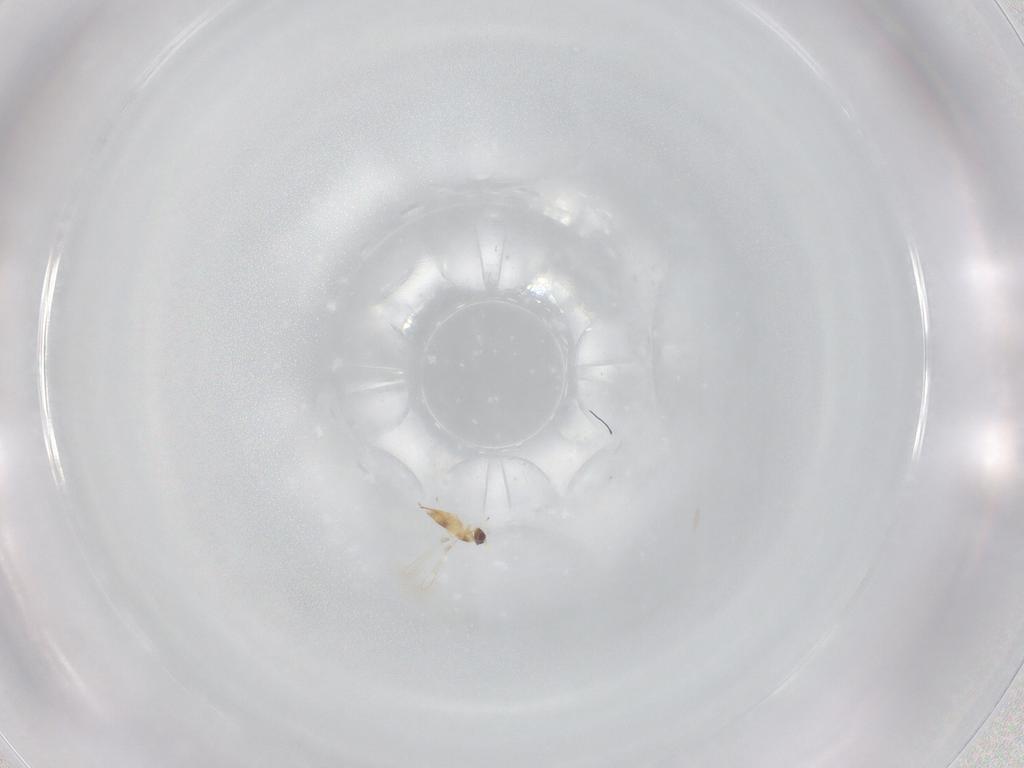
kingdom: Animalia
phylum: Arthropoda
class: Insecta
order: Hymenoptera
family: Mymaridae
